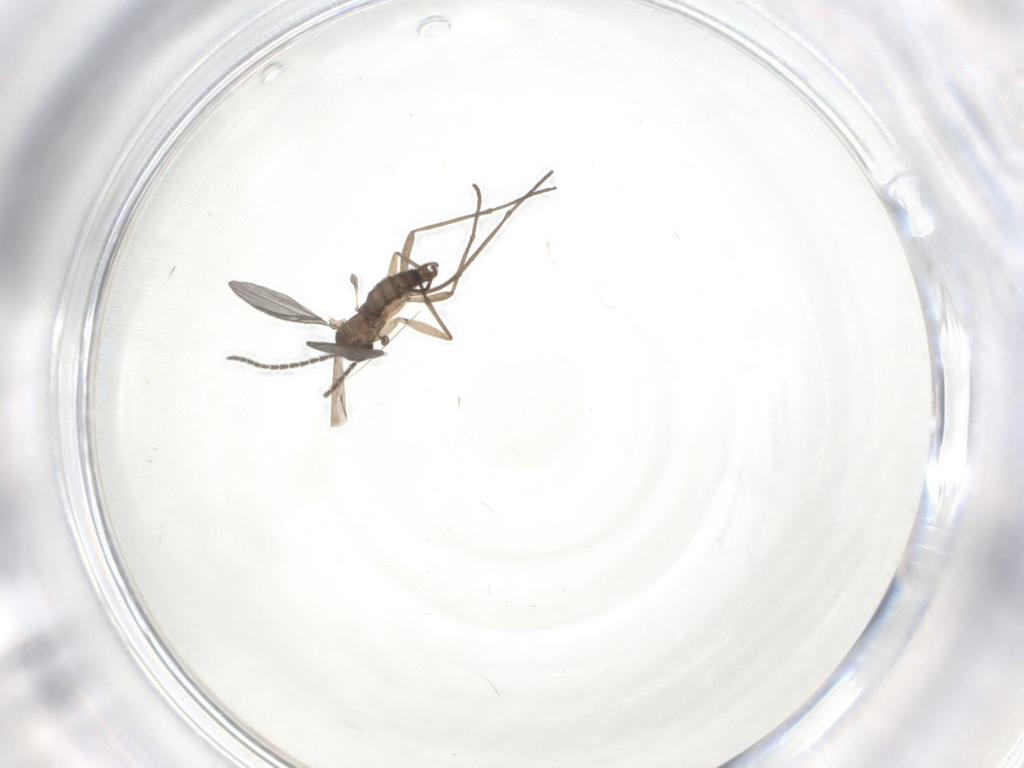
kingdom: Animalia
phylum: Arthropoda
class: Insecta
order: Diptera
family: Sciaridae
